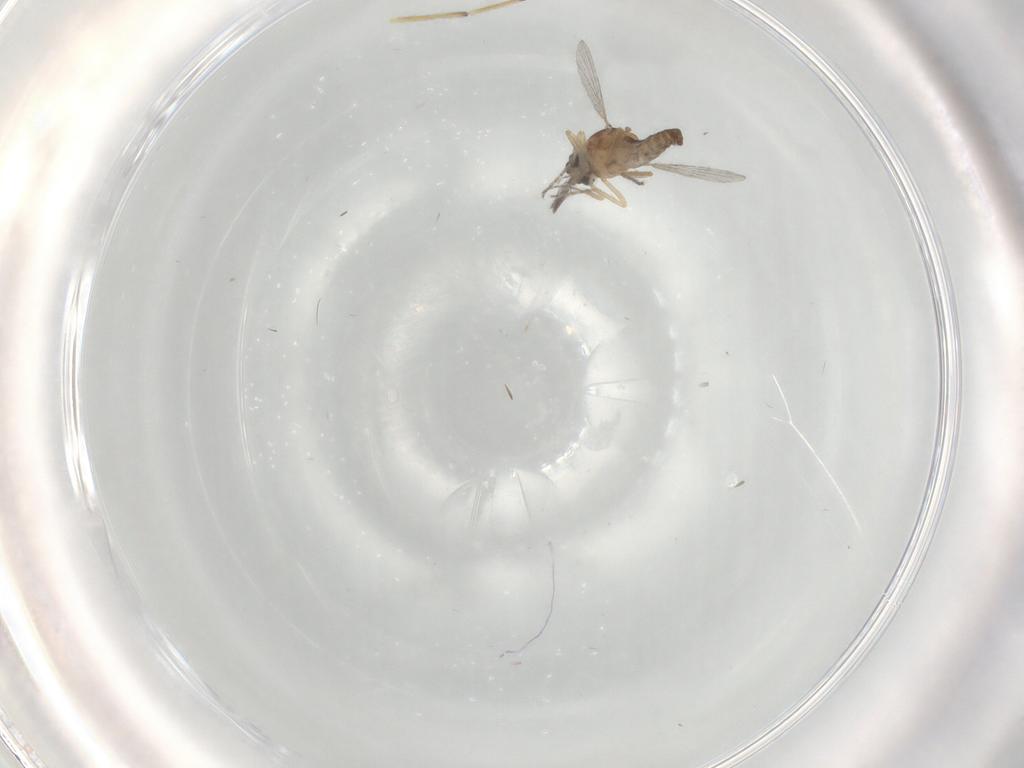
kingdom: Animalia
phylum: Arthropoda
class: Insecta
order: Diptera
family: Ceratopogonidae
